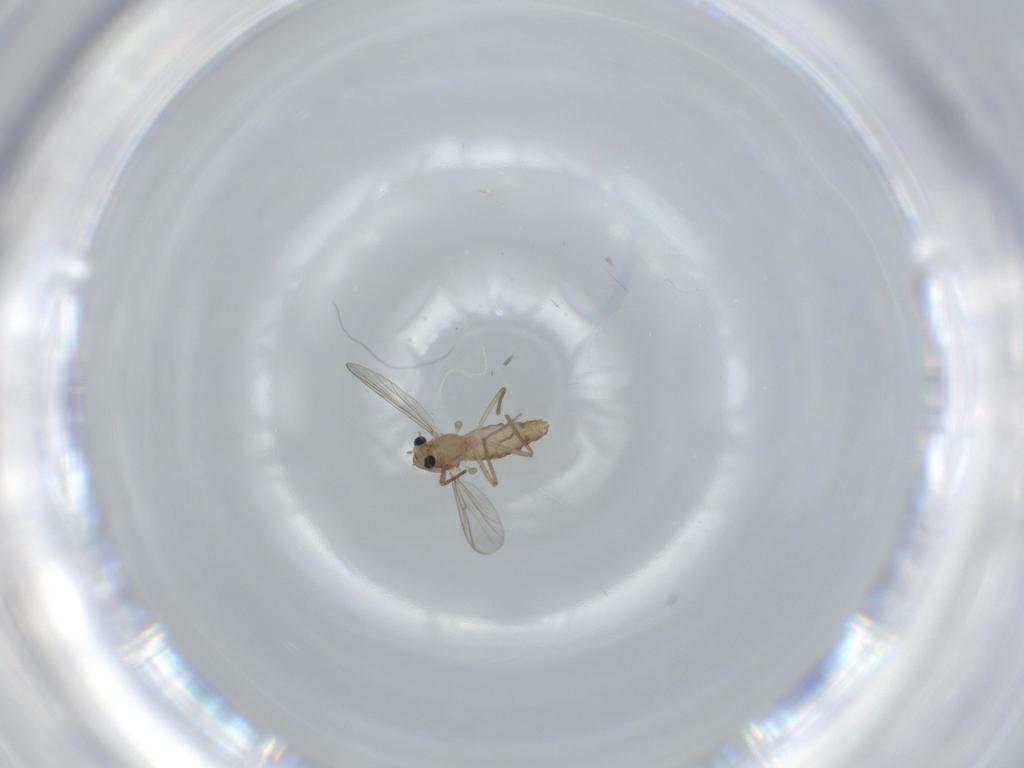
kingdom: Animalia
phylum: Arthropoda
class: Insecta
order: Diptera
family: Chironomidae
